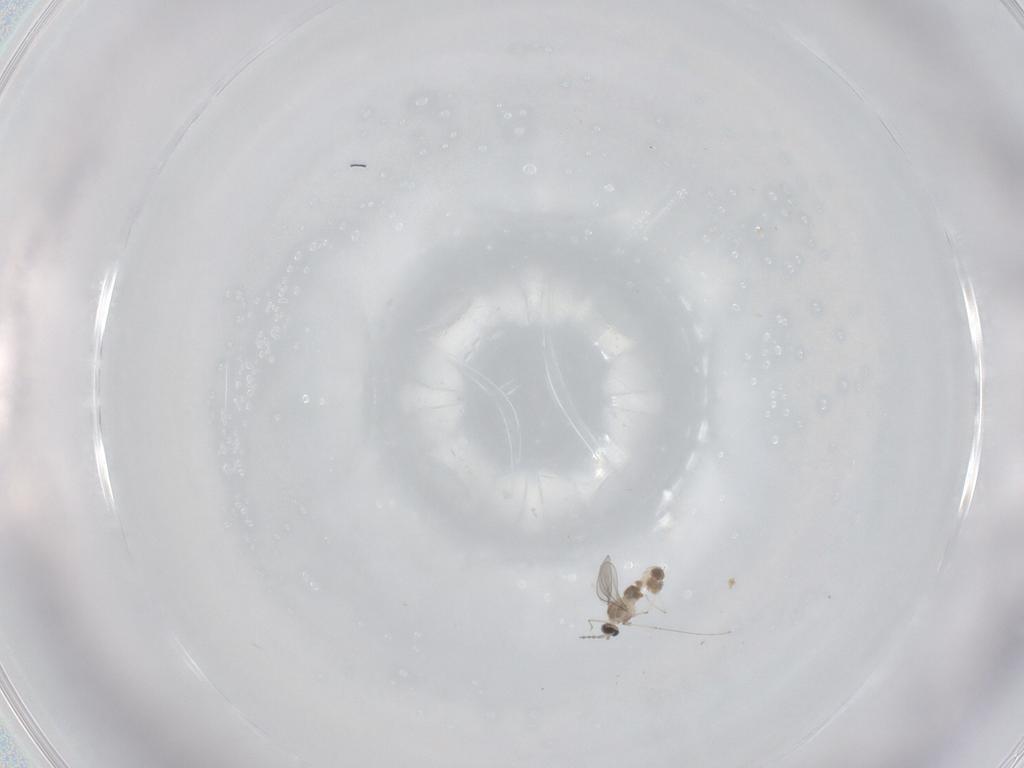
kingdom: Animalia
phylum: Arthropoda
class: Insecta
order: Diptera
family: Cecidomyiidae
